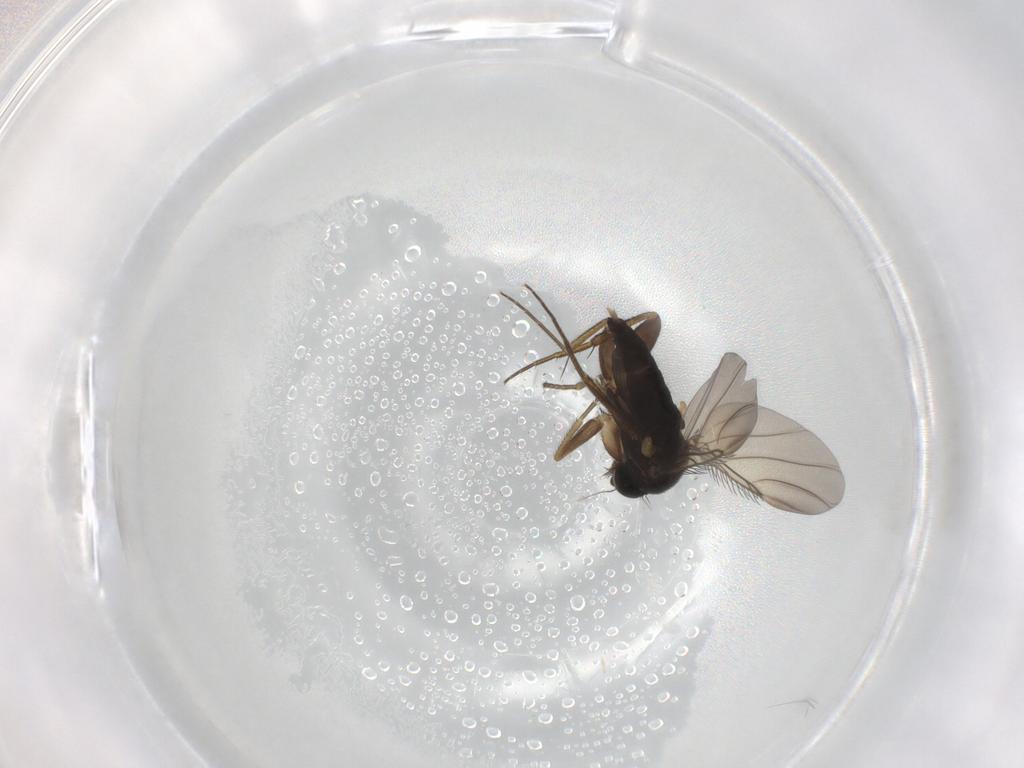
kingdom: Animalia
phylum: Arthropoda
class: Insecta
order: Diptera
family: Phoridae
